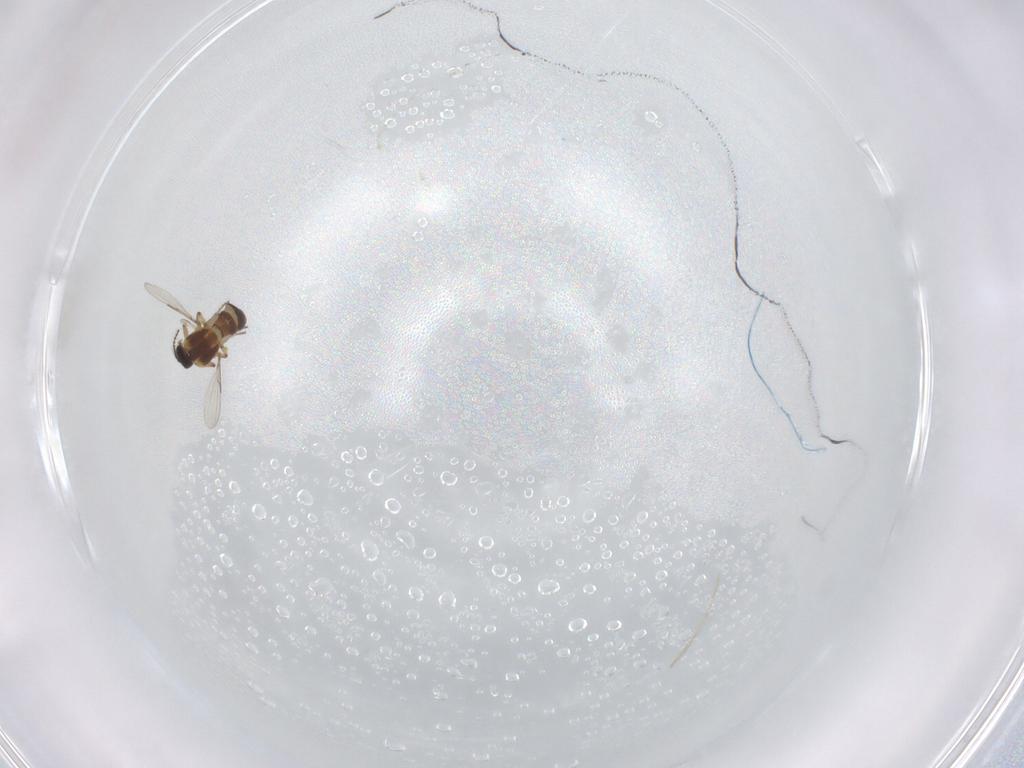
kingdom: Animalia
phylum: Arthropoda
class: Insecta
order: Diptera
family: Ceratopogonidae
